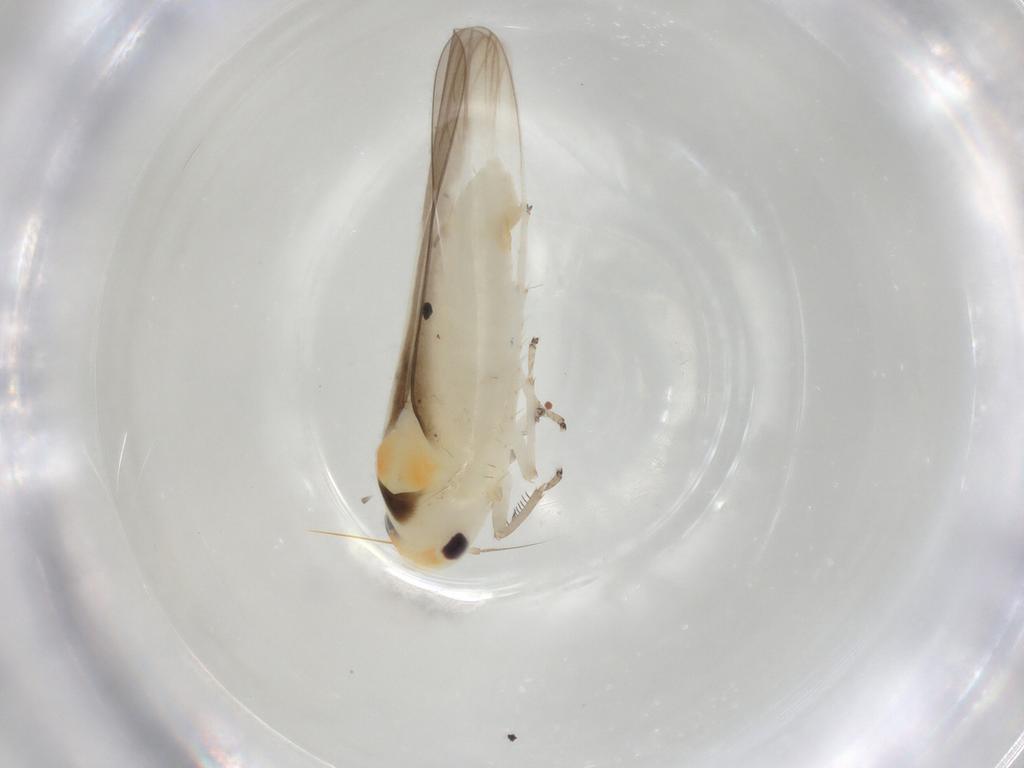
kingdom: Animalia
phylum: Arthropoda
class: Insecta
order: Hemiptera
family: Cicadellidae
